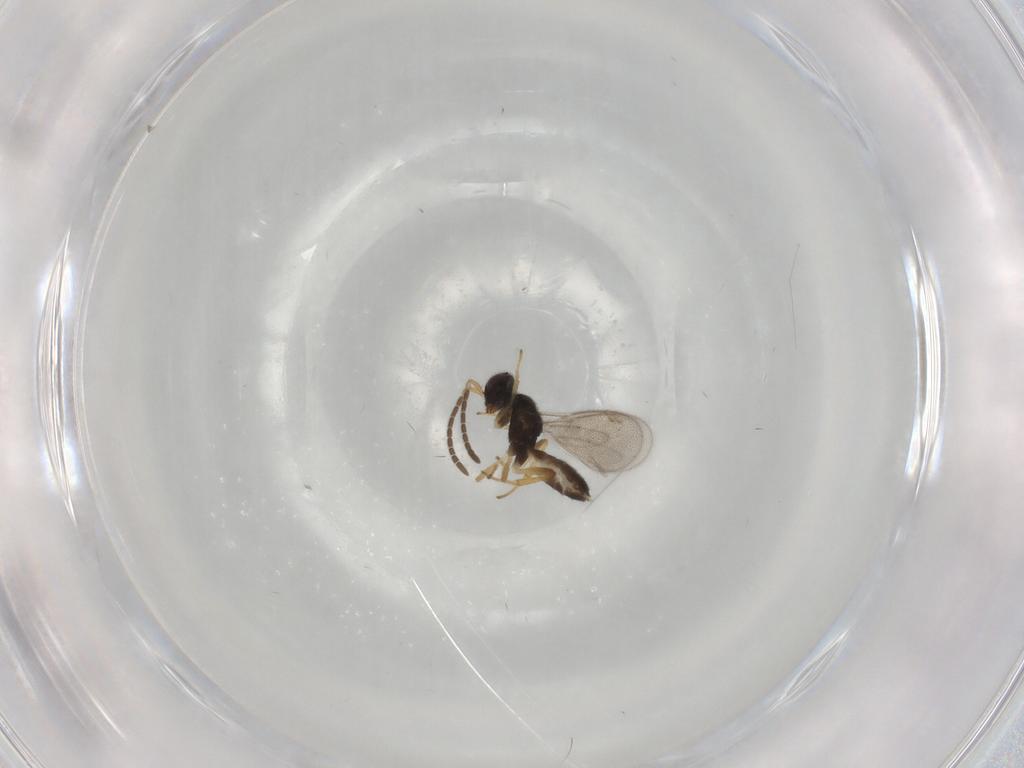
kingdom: Animalia
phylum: Arthropoda
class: Insecta
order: Hymenoptera
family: Eupelmidae
